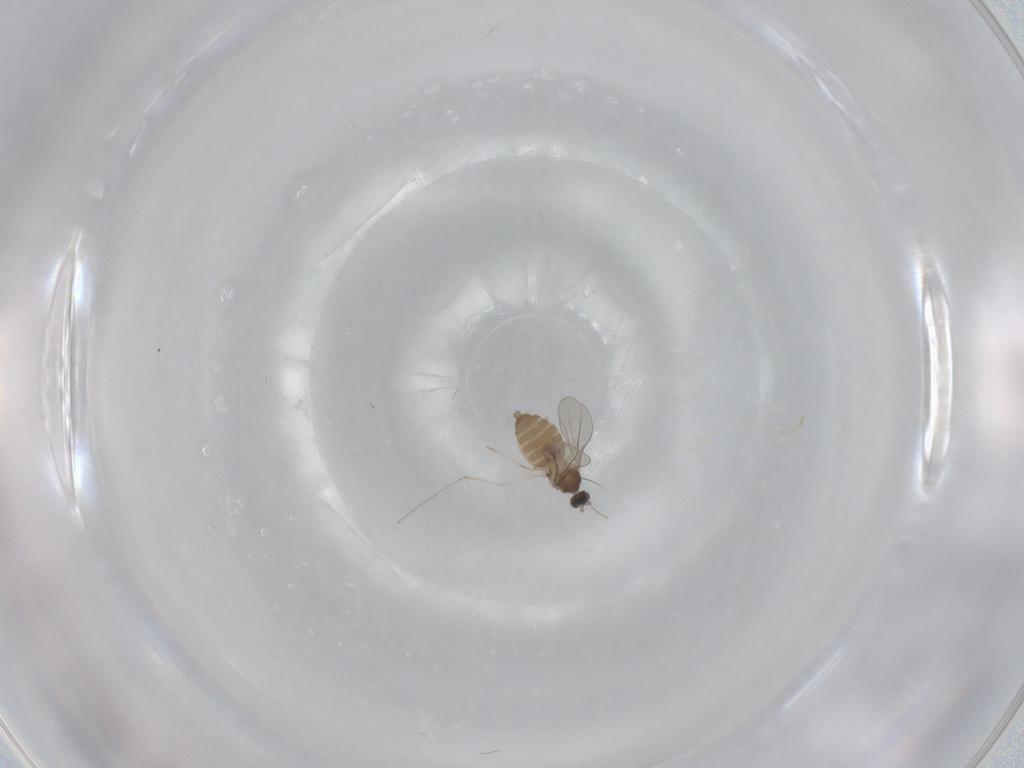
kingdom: Animalia
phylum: Arthropoda
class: Insecta
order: Diptera
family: Cecidomyiidae
